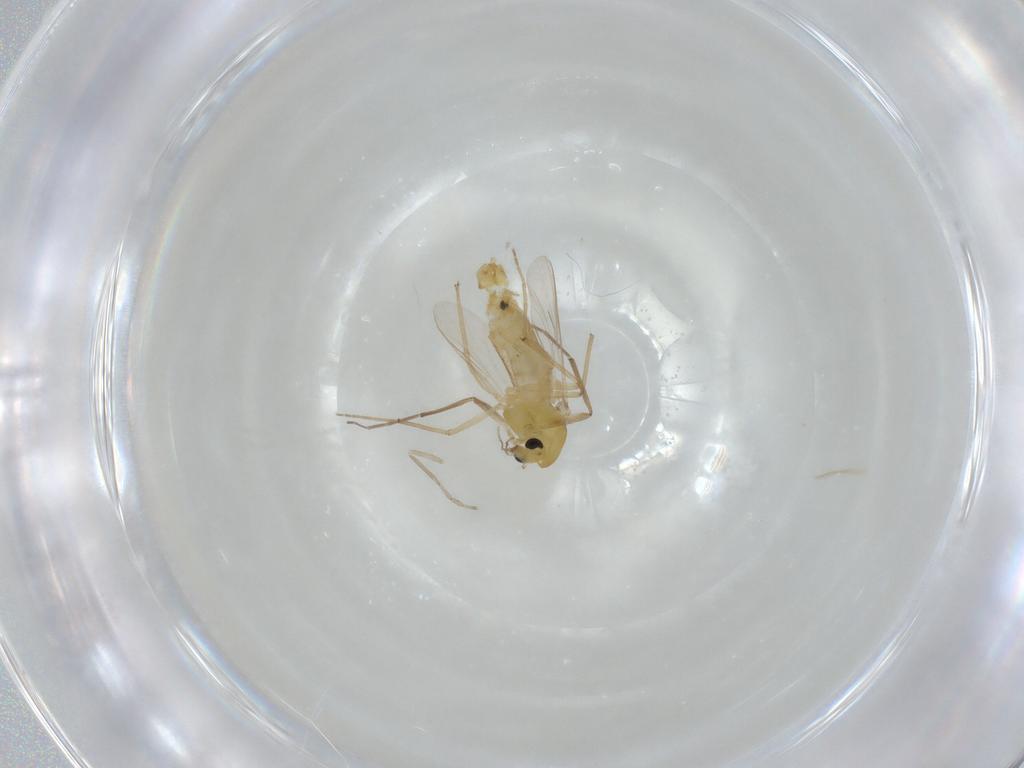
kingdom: Animalia
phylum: Arthropoda
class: Insecta
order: Diptera
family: Chironomidae
